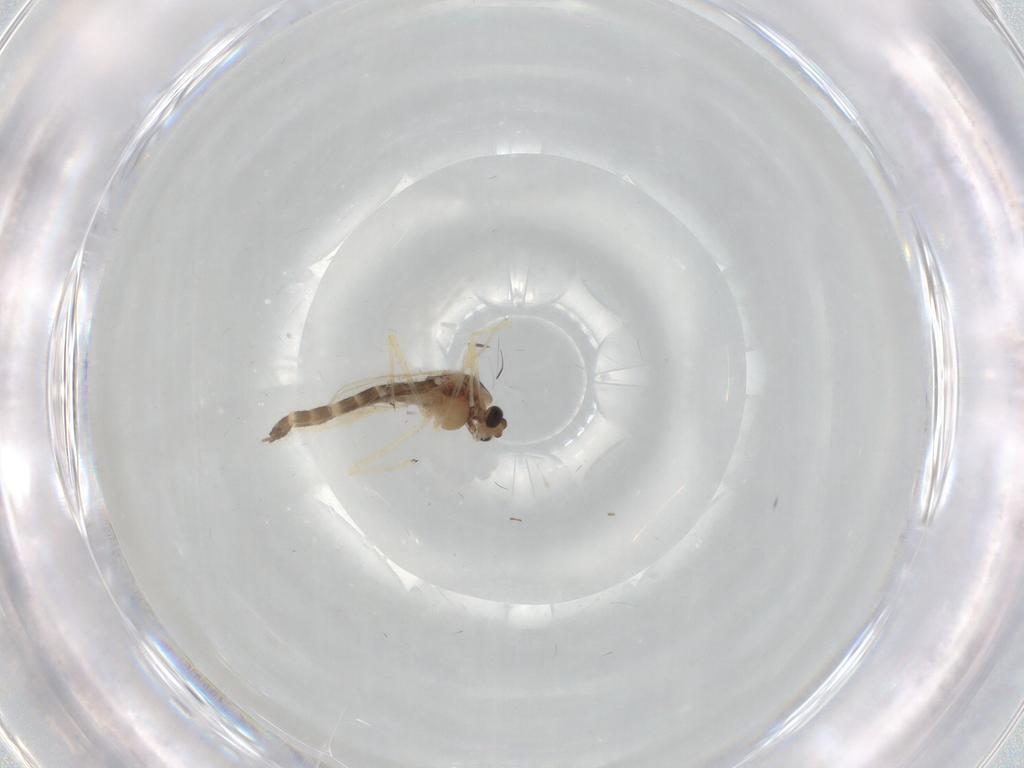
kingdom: Animalia
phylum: Arthropoda
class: Insecta
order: Diptera
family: Chironomidae
